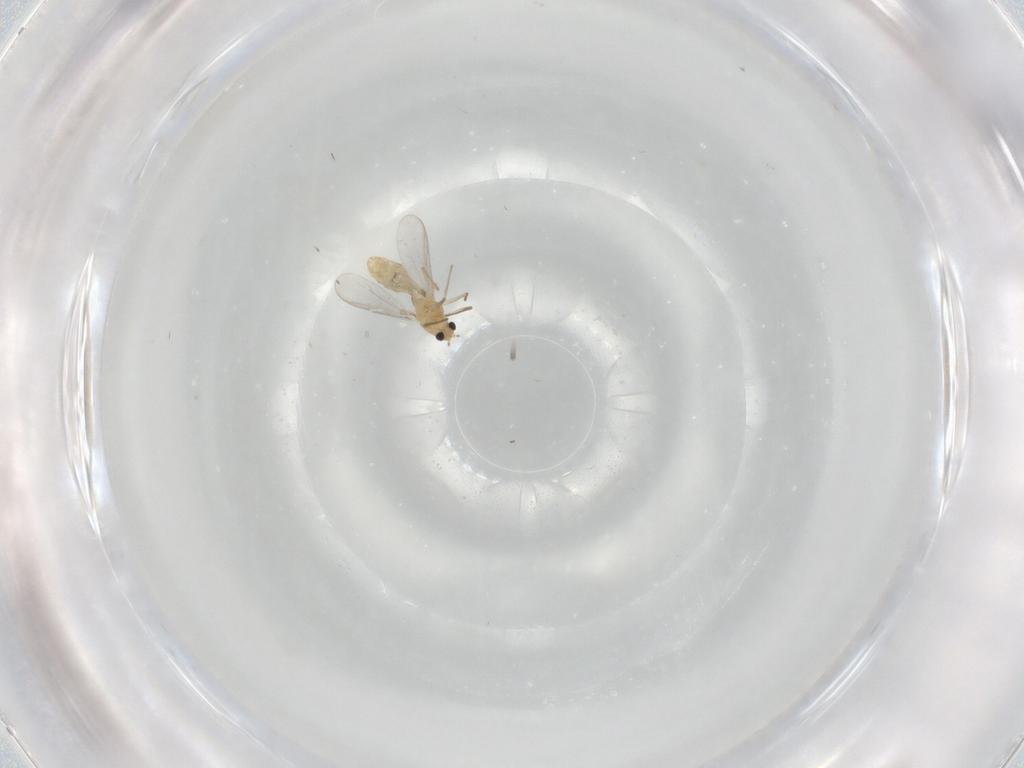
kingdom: Animalia
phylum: Arthropoda
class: Insecta
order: Diptera
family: Chironomidae
